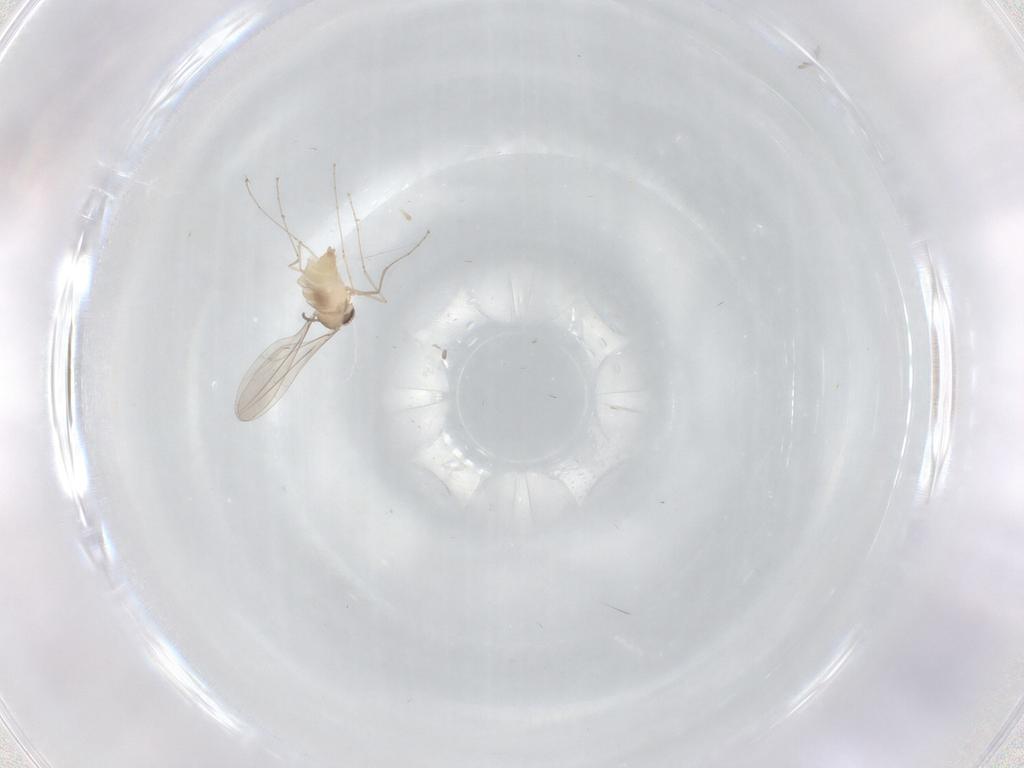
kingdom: Animalia
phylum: Arthropoda
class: Insecta
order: Diptera
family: Cecidomyiidae
